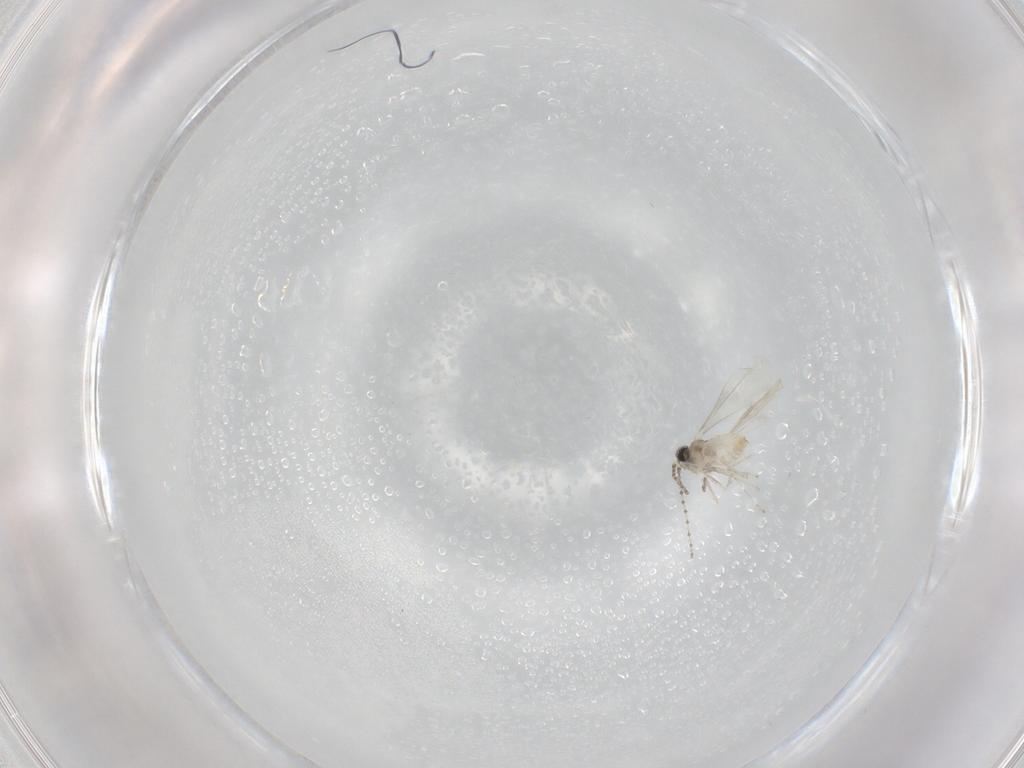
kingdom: Animalia
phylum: Arthropoda
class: Insecta
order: Diptera
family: Cecidomyiidae
